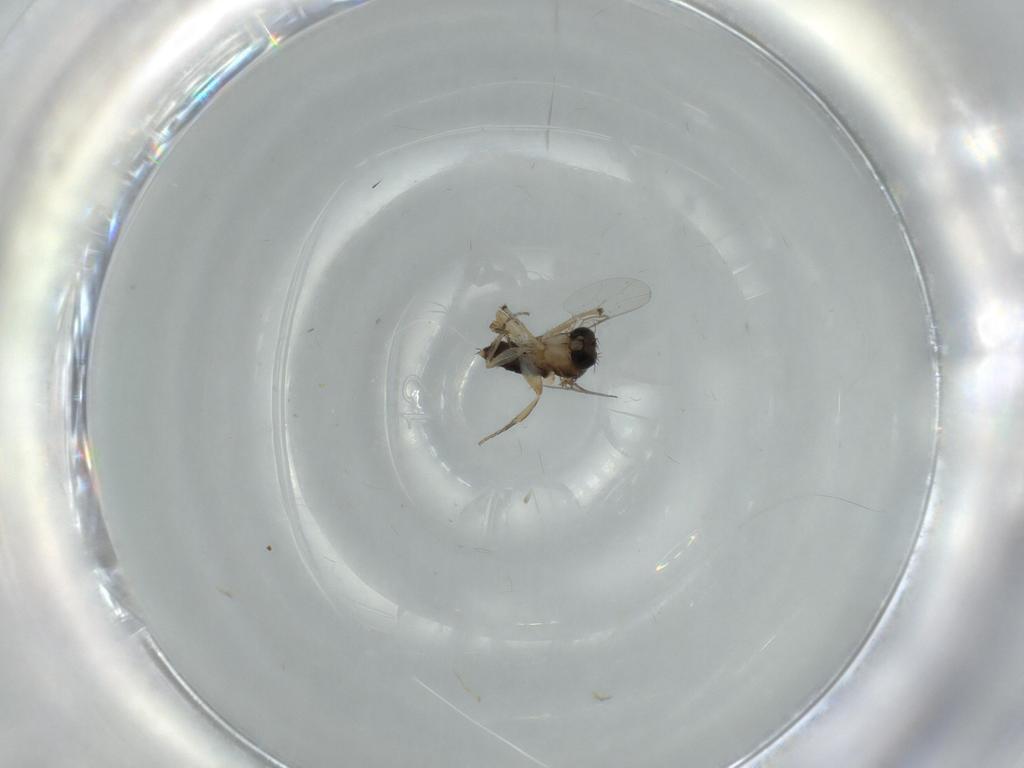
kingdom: Animalia
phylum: Arthropoda
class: Insecta
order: Diptera
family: Phoridae
